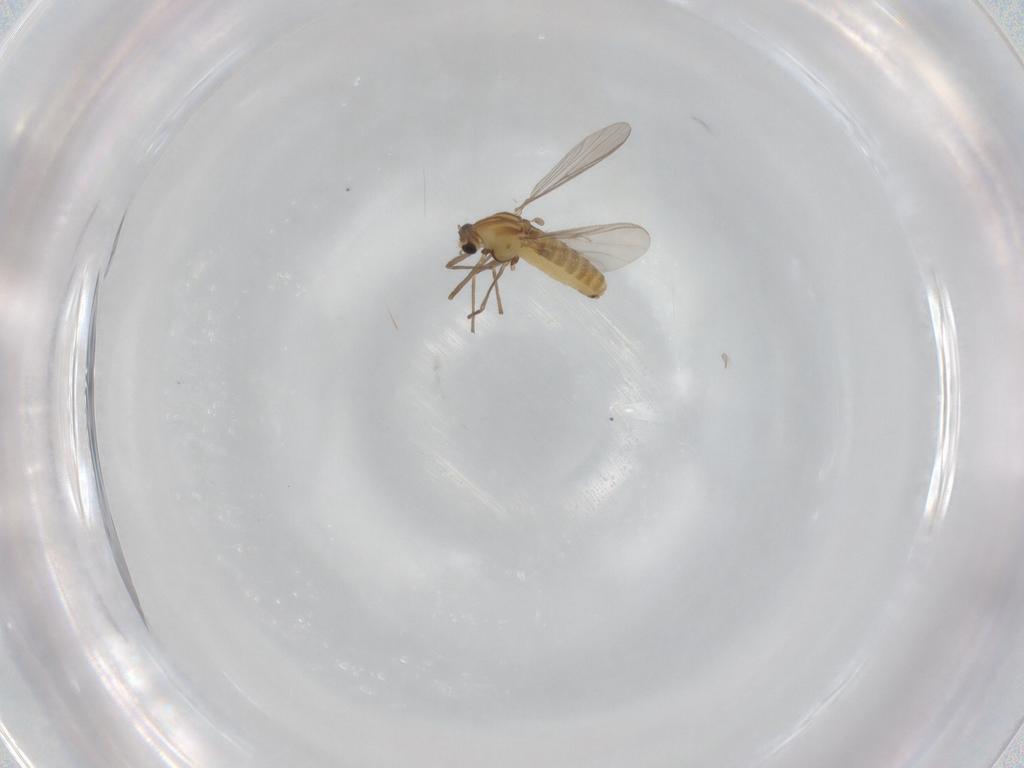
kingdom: Animalia
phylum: Arthropoda
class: Insecta
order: Diptera
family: Chironomidae
